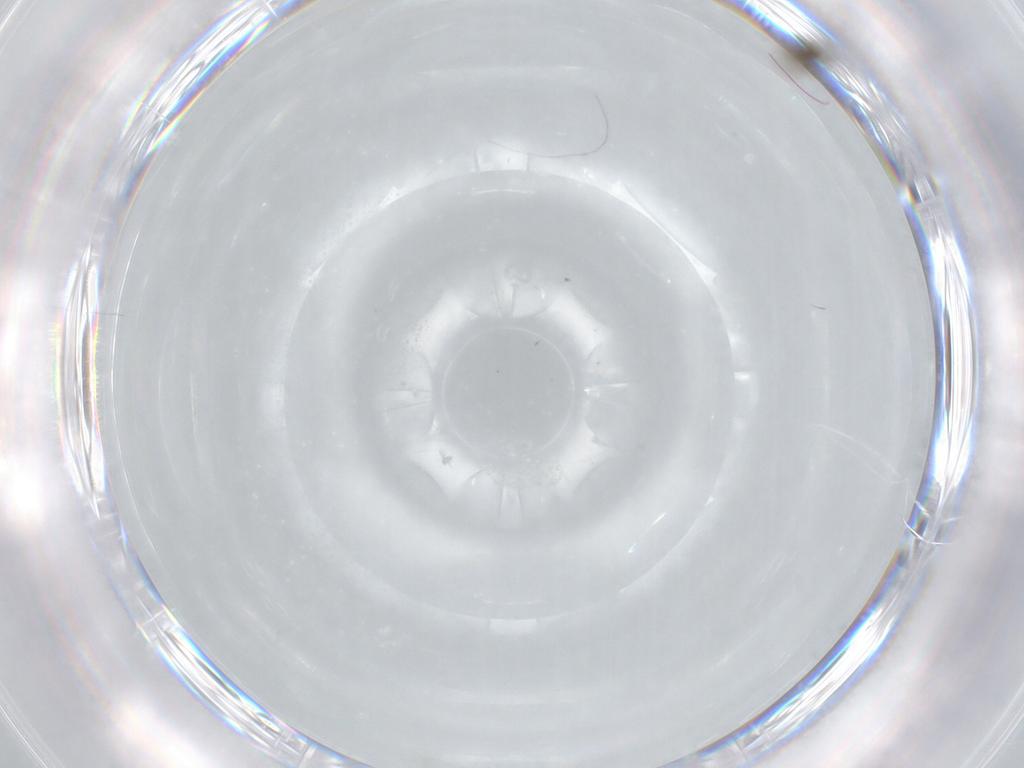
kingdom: Animalia
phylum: Arthropoda
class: Insecta
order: Hymenoptera
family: Trichogrammatidae
